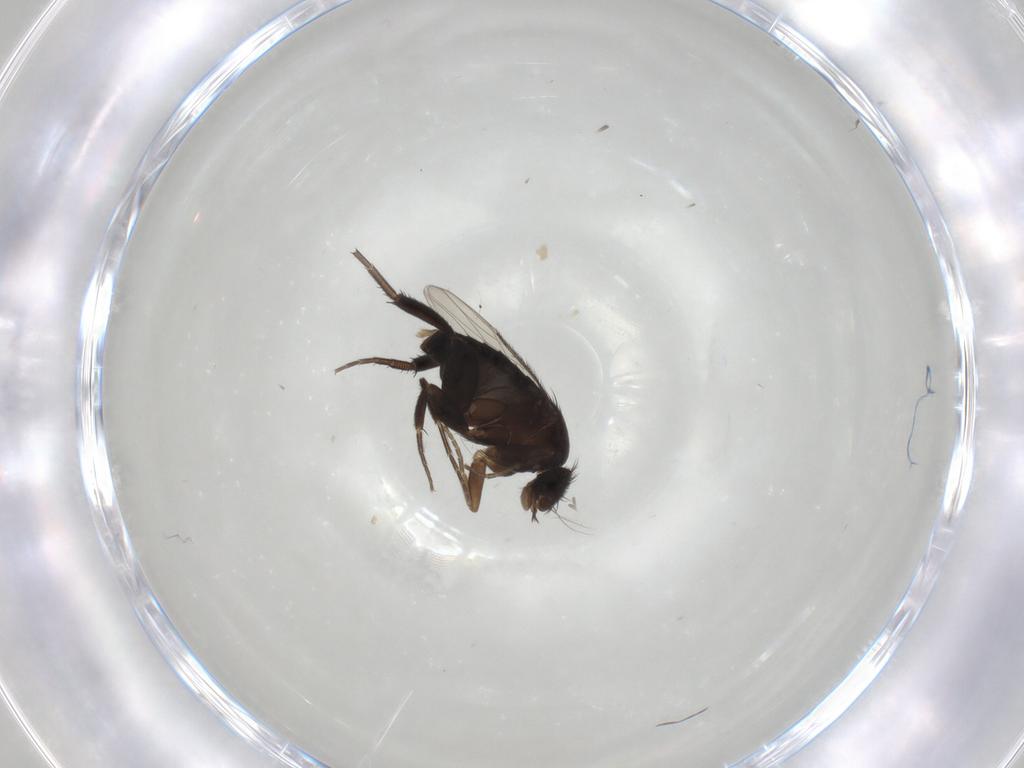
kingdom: Animalia
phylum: Arthropoda
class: Insecta
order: Diptera
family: Phoridae
